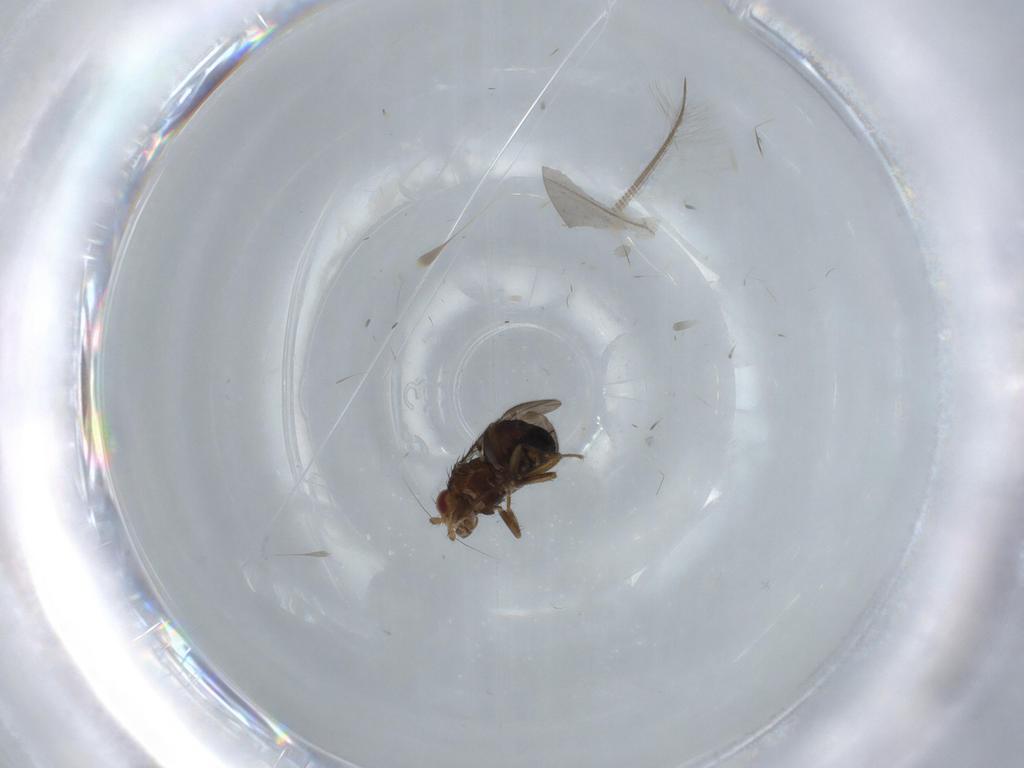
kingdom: Animalia
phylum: Arthropoda
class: Insecta
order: Diptera
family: Sphaeroceridae
